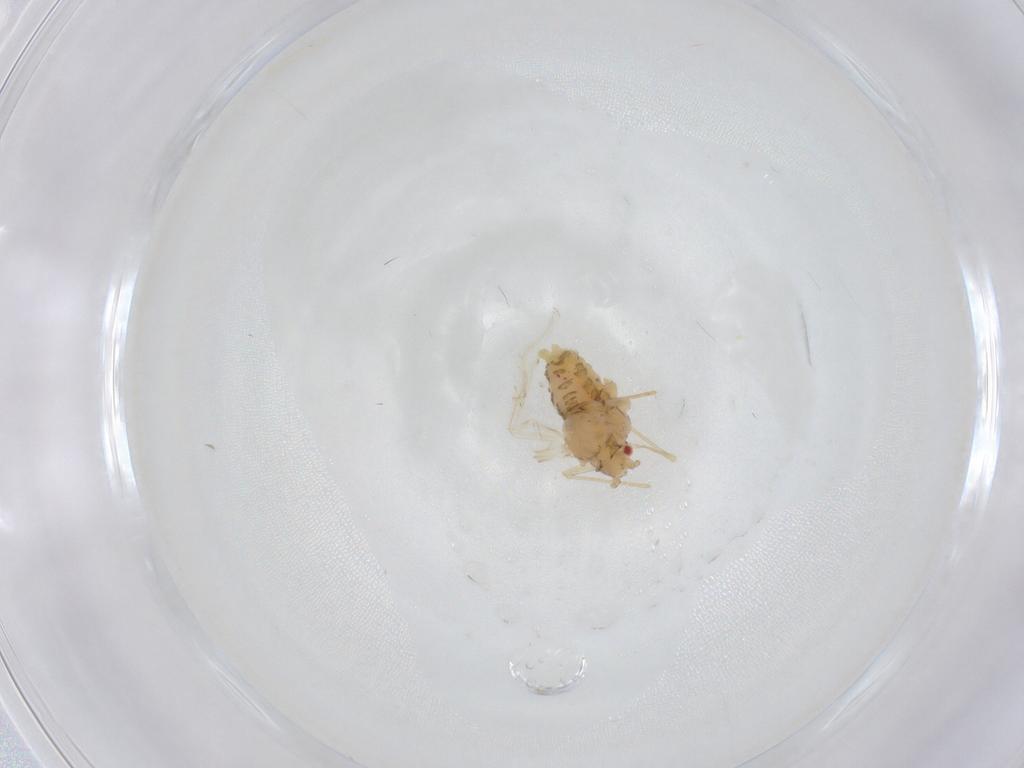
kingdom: Animalia
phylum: Arthropoda
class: Insecta
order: Hemiptera
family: Aphididae
